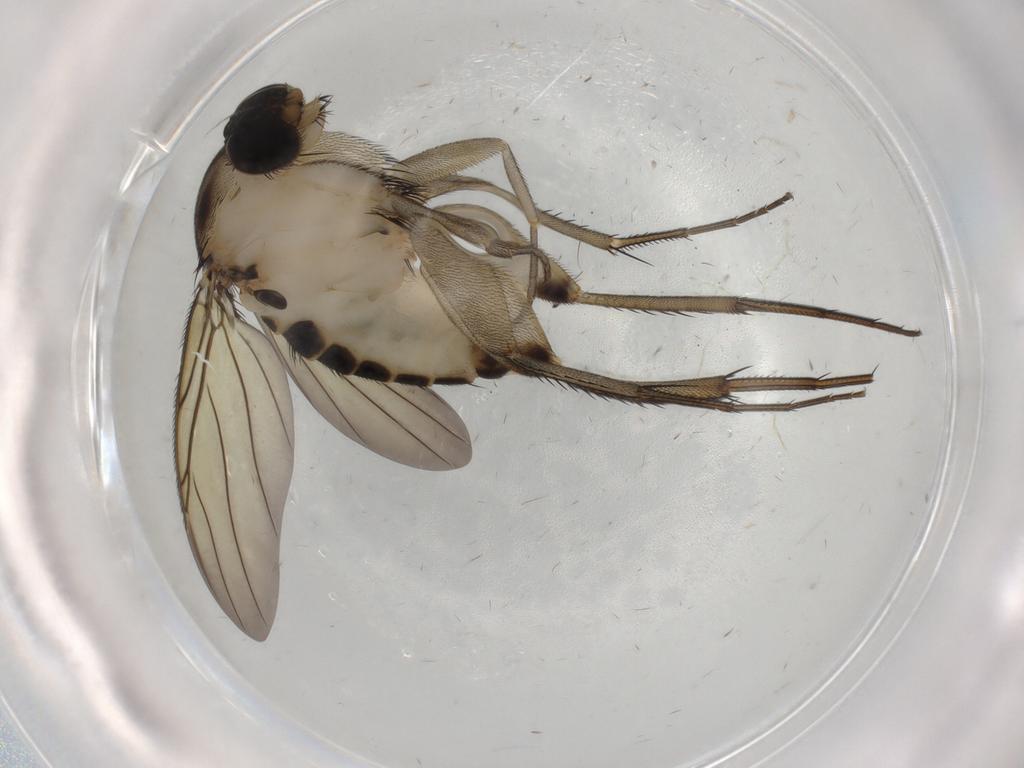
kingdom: Animalia
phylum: Arthropoda
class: Insecta
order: Diptera
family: Phoridae
